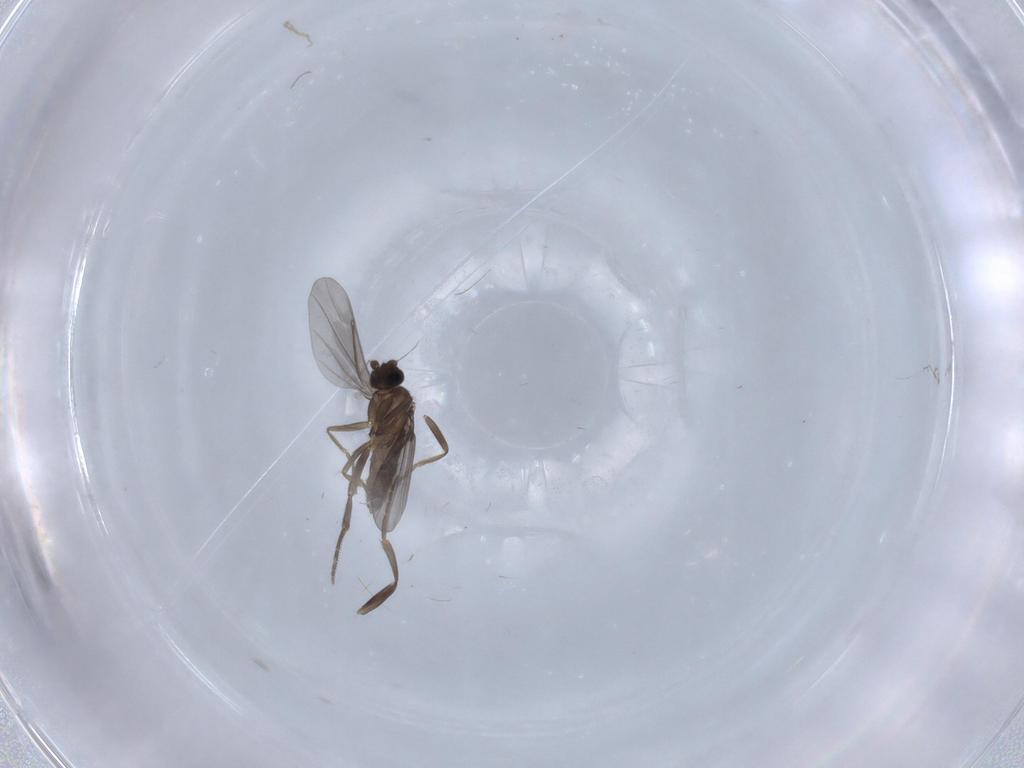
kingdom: Animalia
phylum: Arthropoda
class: Insecta
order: Diptera
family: Phoridae
